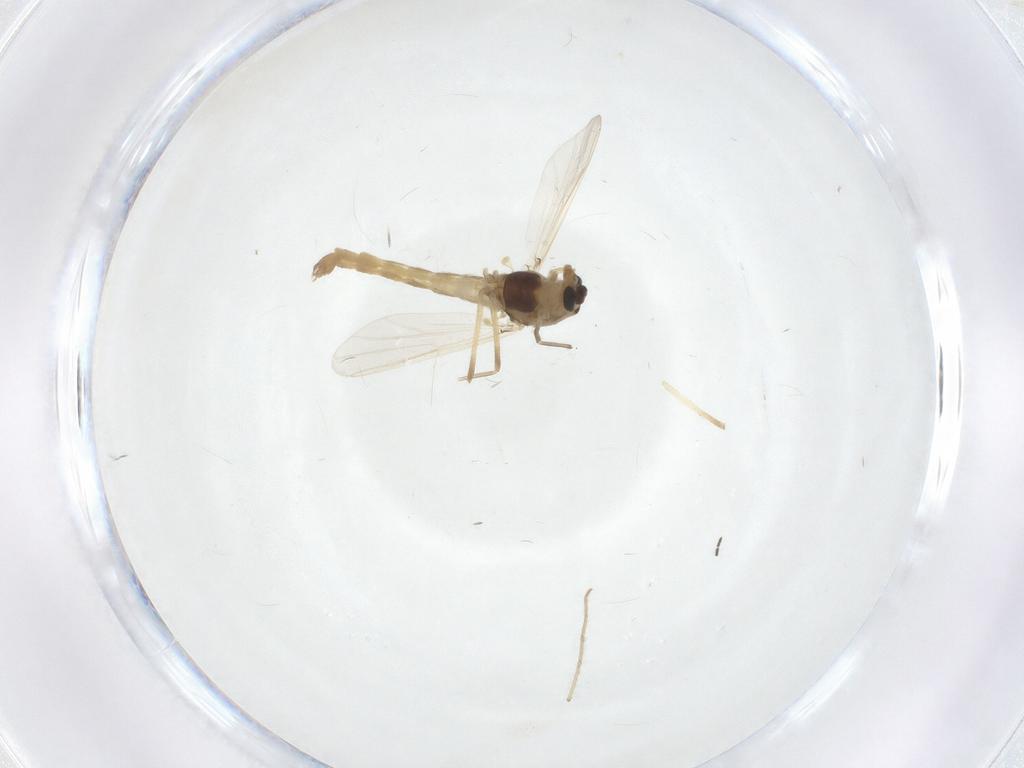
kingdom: Animalia
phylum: Arthropoda
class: Insecta
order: Diptera
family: Chironomidae
